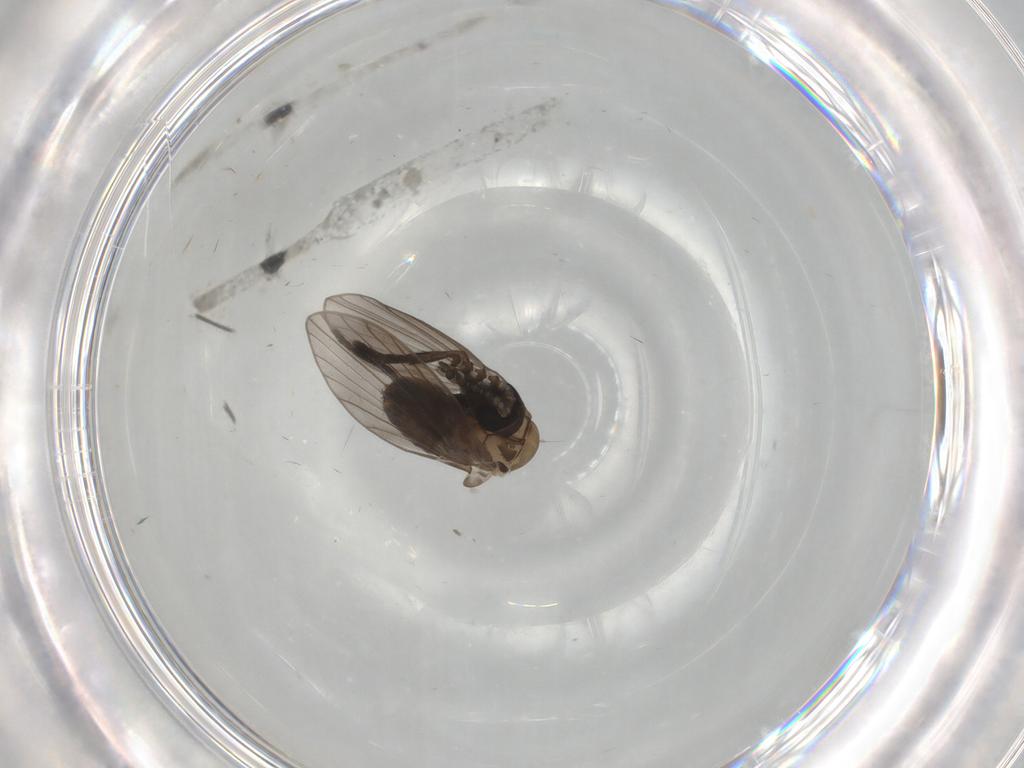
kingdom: Animalia
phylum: Arthropoda
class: Insecta
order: Diptera
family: Psychodidae
